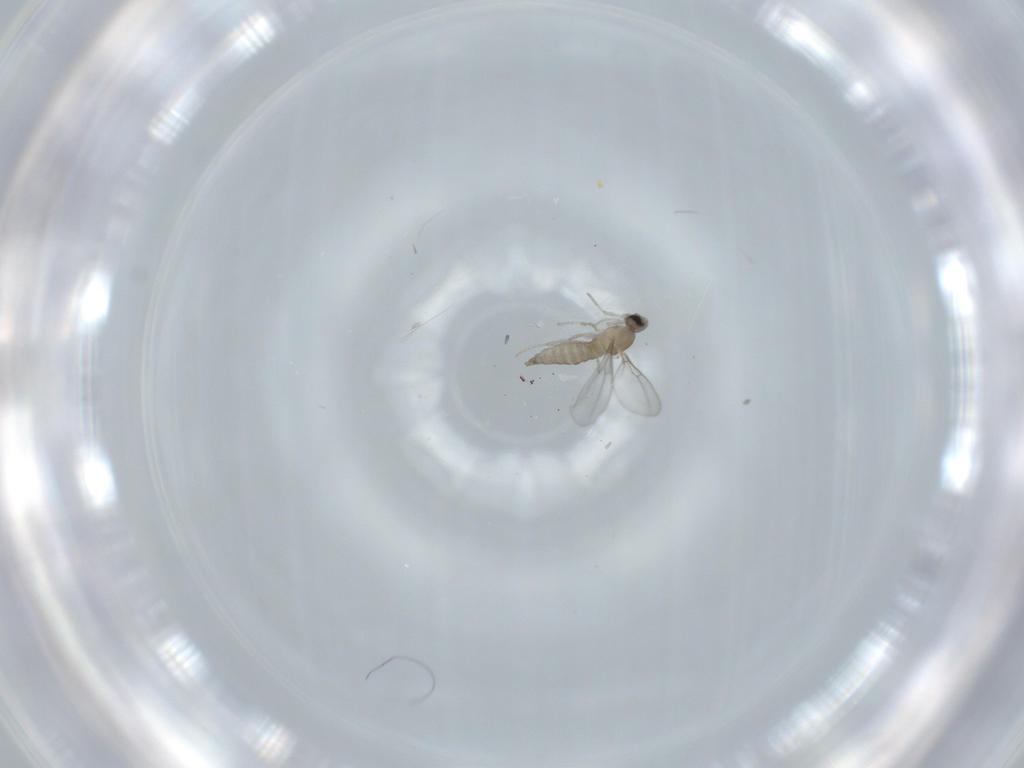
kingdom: Animalia
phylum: Arthropoda
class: Insecta
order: Diptera
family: Cecidomyiidae
